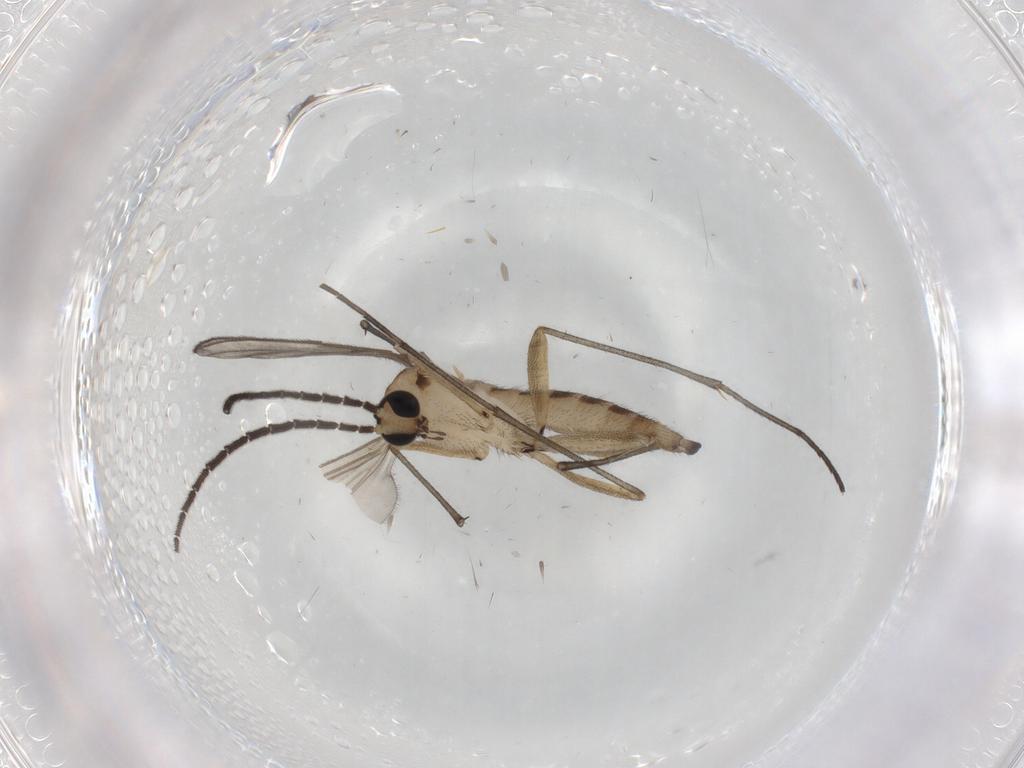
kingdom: Animalia
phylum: Arthropoda
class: Insecta
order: Diptera
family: Sciaridae
